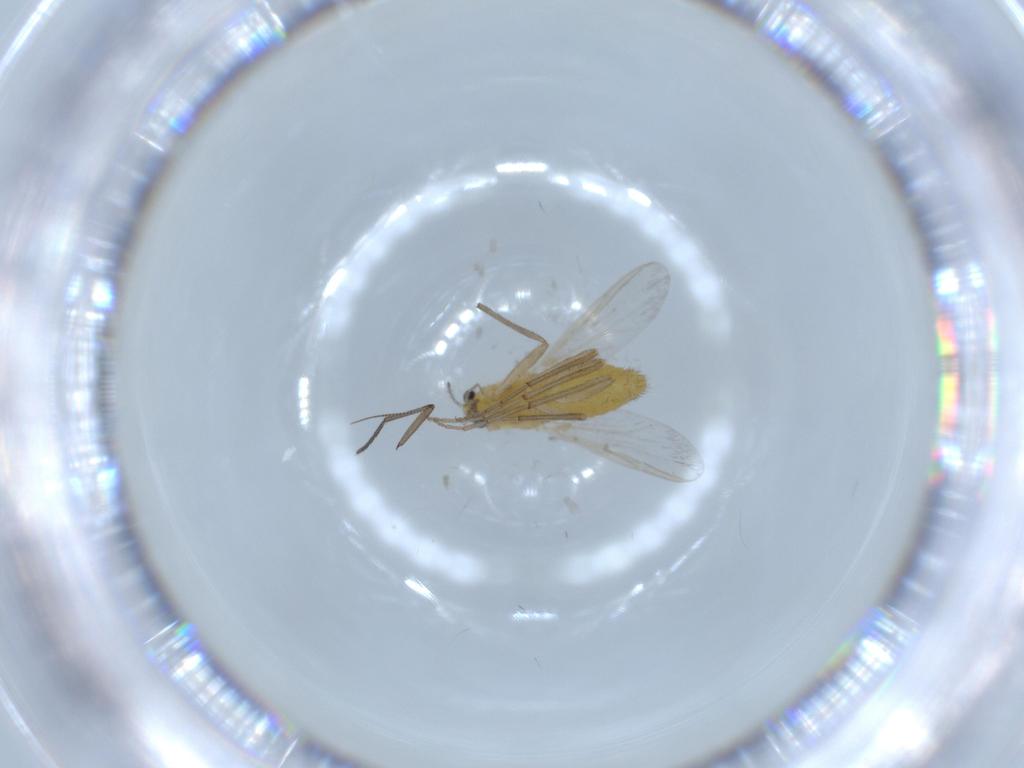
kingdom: Animalia
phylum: Arthropoda
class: Insecta
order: Diptera
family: Chironomidae
